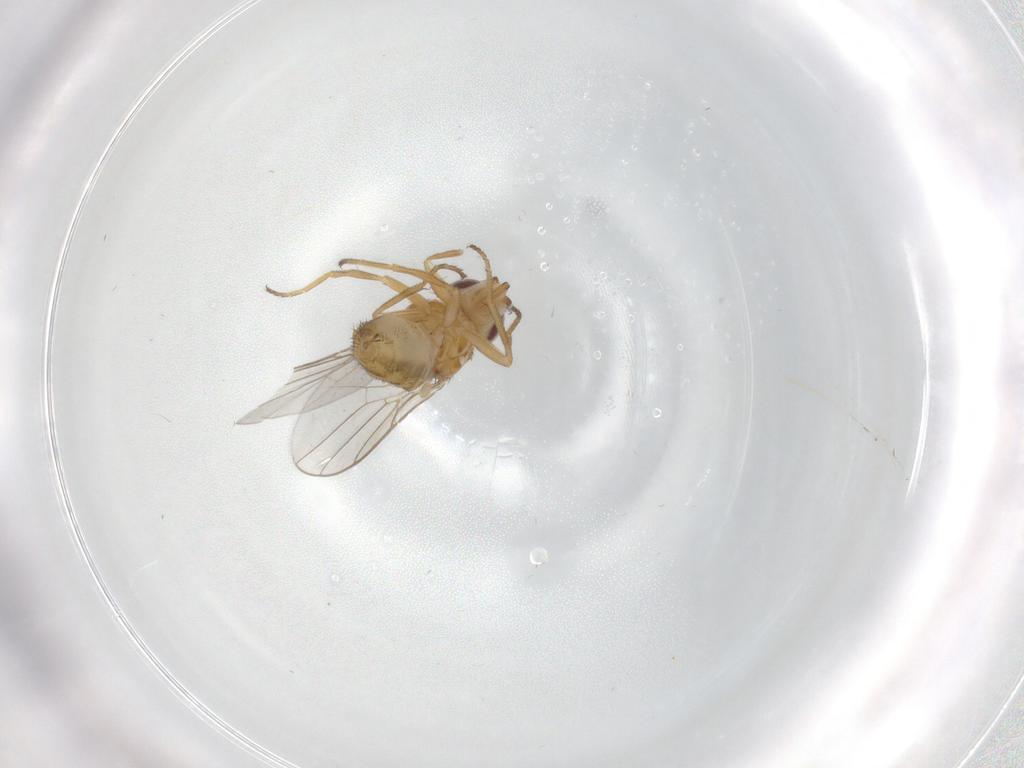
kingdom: Animalia
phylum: Arthropoda
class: Insecta
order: Diptera
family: Chloropidae
